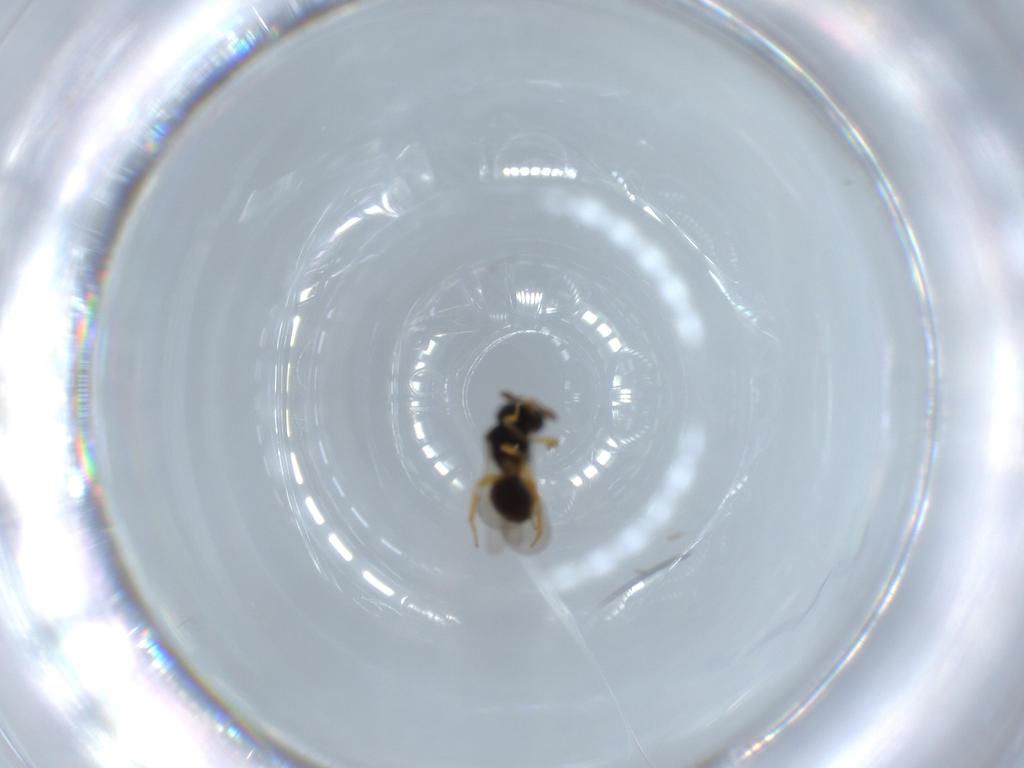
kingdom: Animalia
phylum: Arthropoda
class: Insecta
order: Hymenoptera
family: Scelionidae
